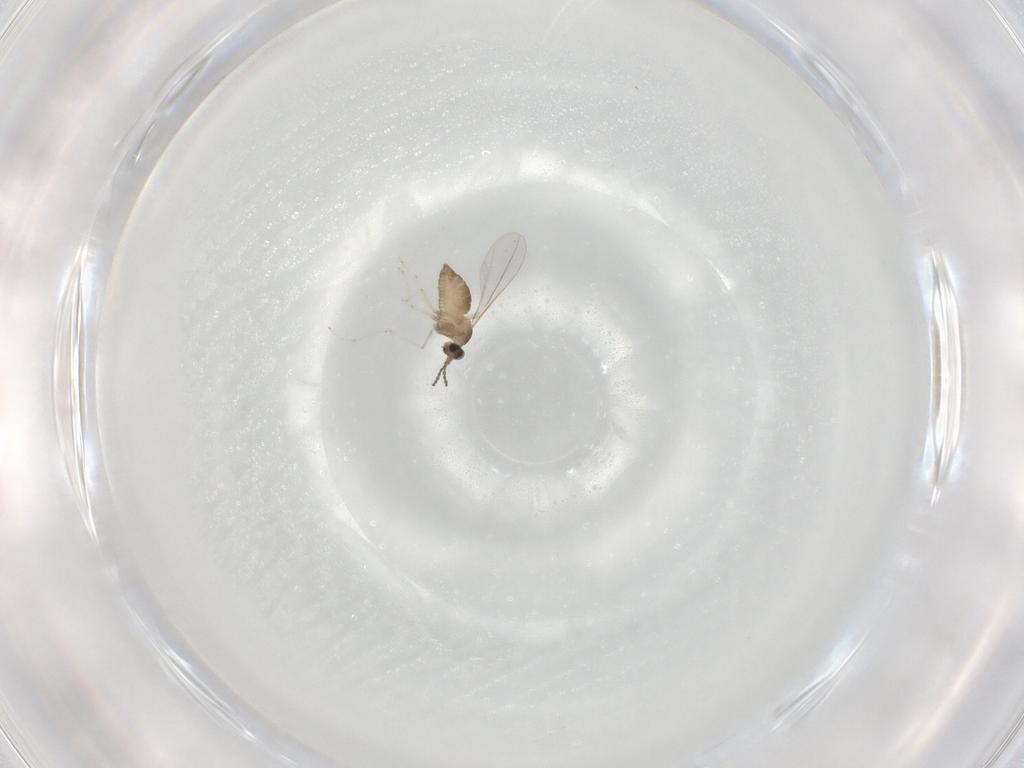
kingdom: Animalia
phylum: Arthropoda
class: Insecta
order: Diptera
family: Cecidomyiidae
